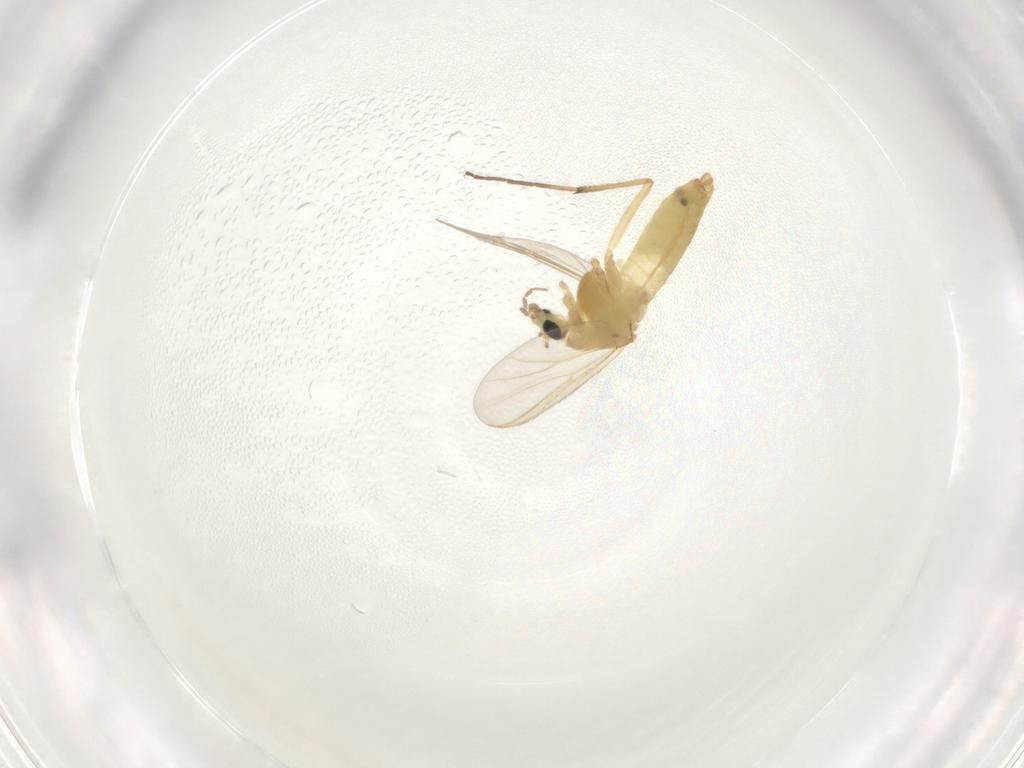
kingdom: Animalia
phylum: Arthropoda
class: Insecta
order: Diptera
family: Chironomidae
